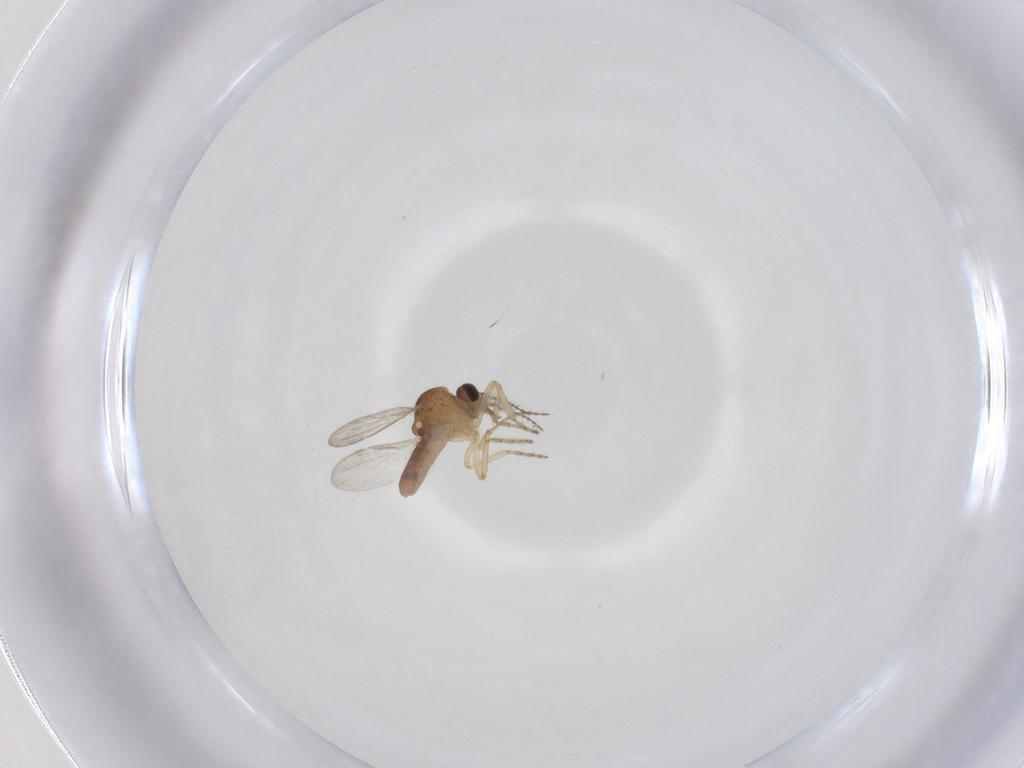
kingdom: Animalia
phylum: Arthropoda
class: Insecta
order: Diptera
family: Ceratopogonidae
